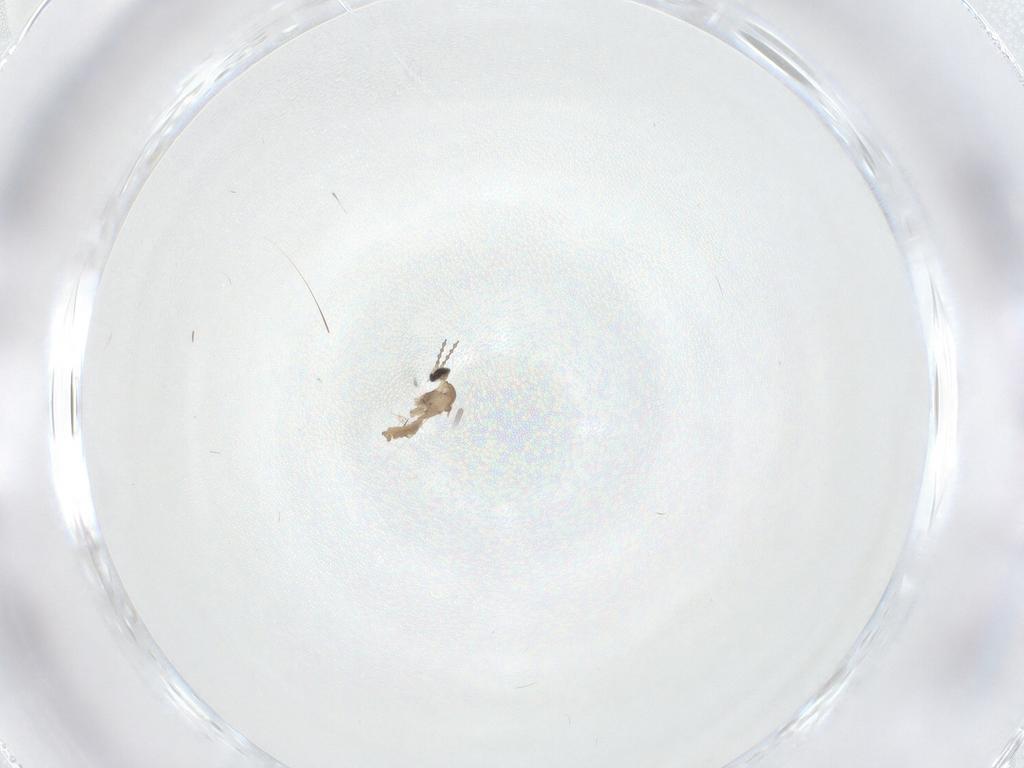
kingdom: Animalia
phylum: Arthropoda
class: Insecta
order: Diptera
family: Cecidomyiidae
